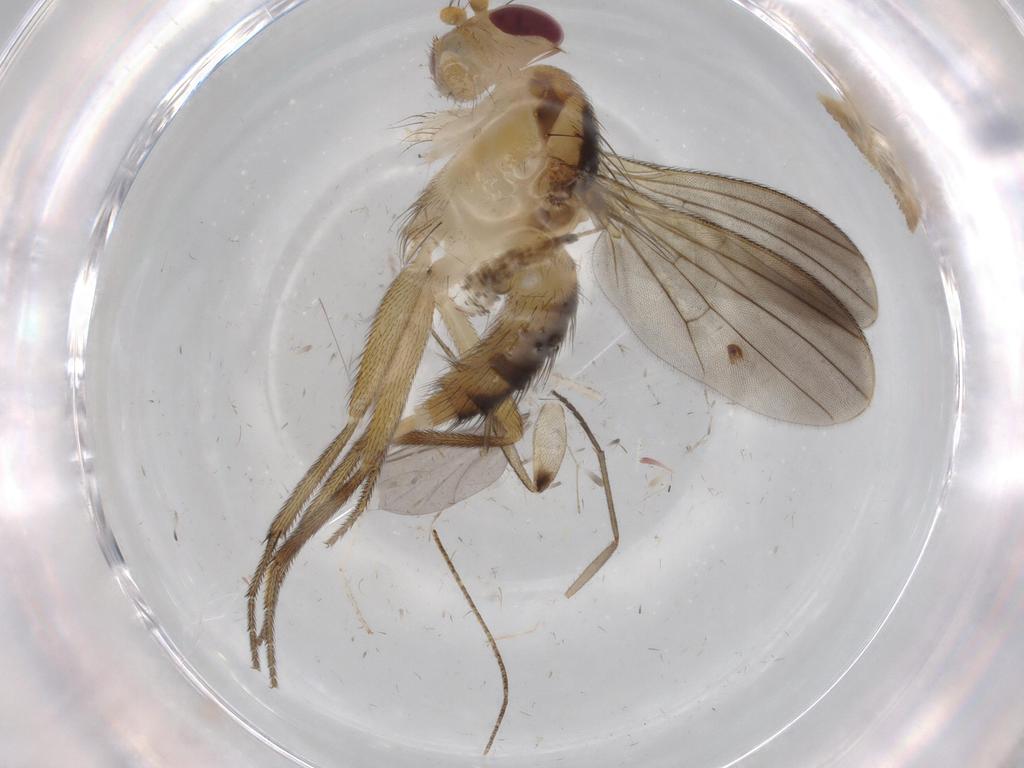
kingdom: Animalia
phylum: Arthropoda
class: Insecta
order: Diptera
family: Clusiidae
